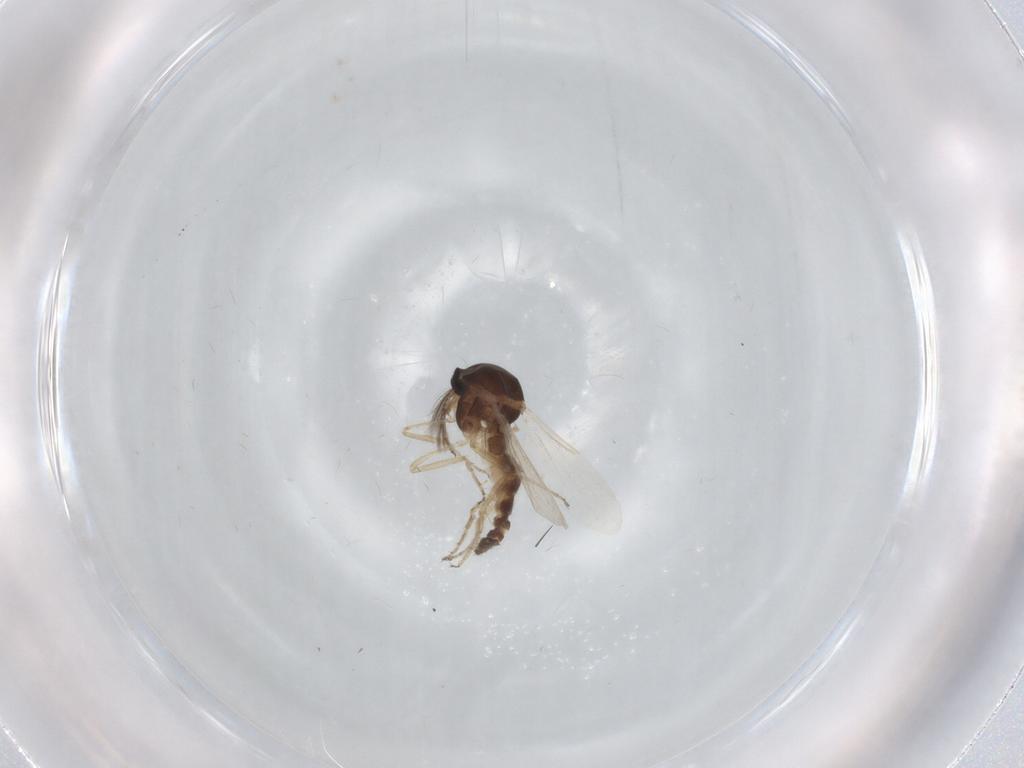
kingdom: Animalia
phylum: Arthropoda
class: Insecta
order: Diptera
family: Ceratopogonidae
